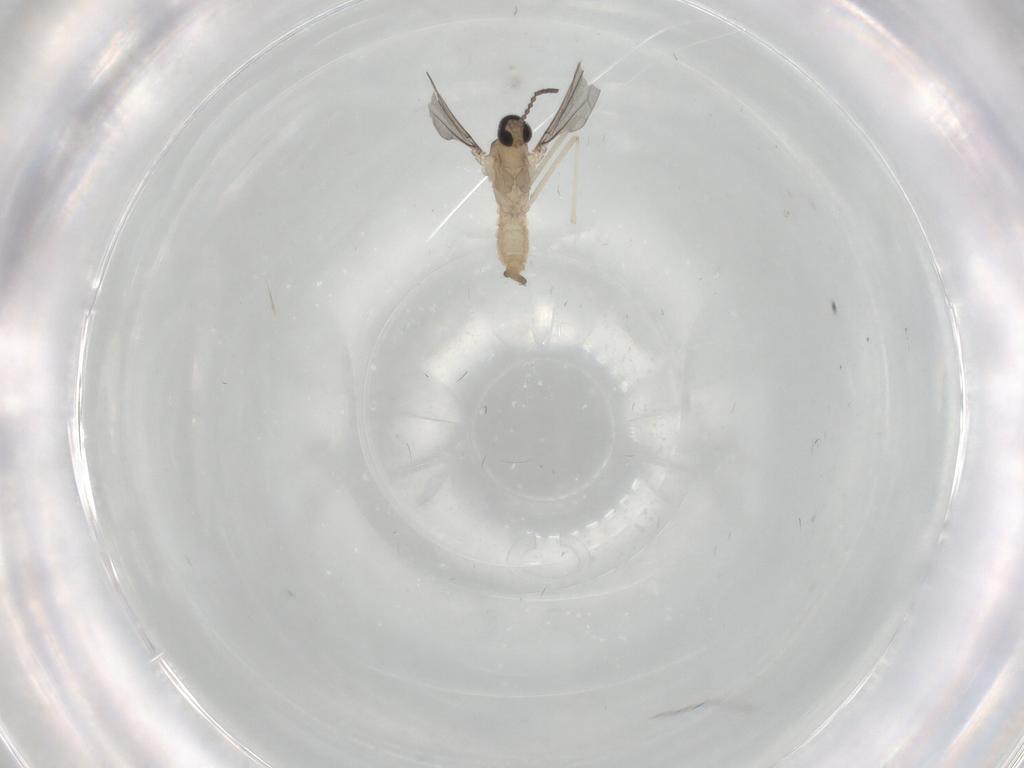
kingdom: Animalia
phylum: Arthropoda
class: Insecta
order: Diptera
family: Cecidomyiidae
